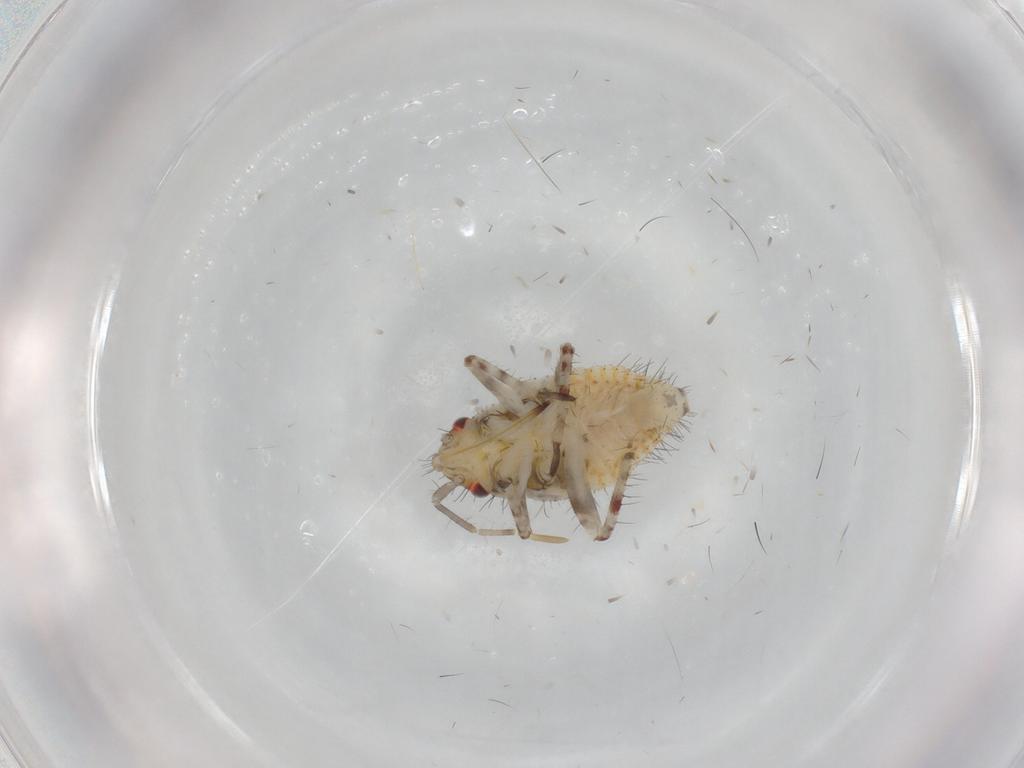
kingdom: Animalia
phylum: Arthropoda
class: Insecta
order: Hemiptera
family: Miridae
